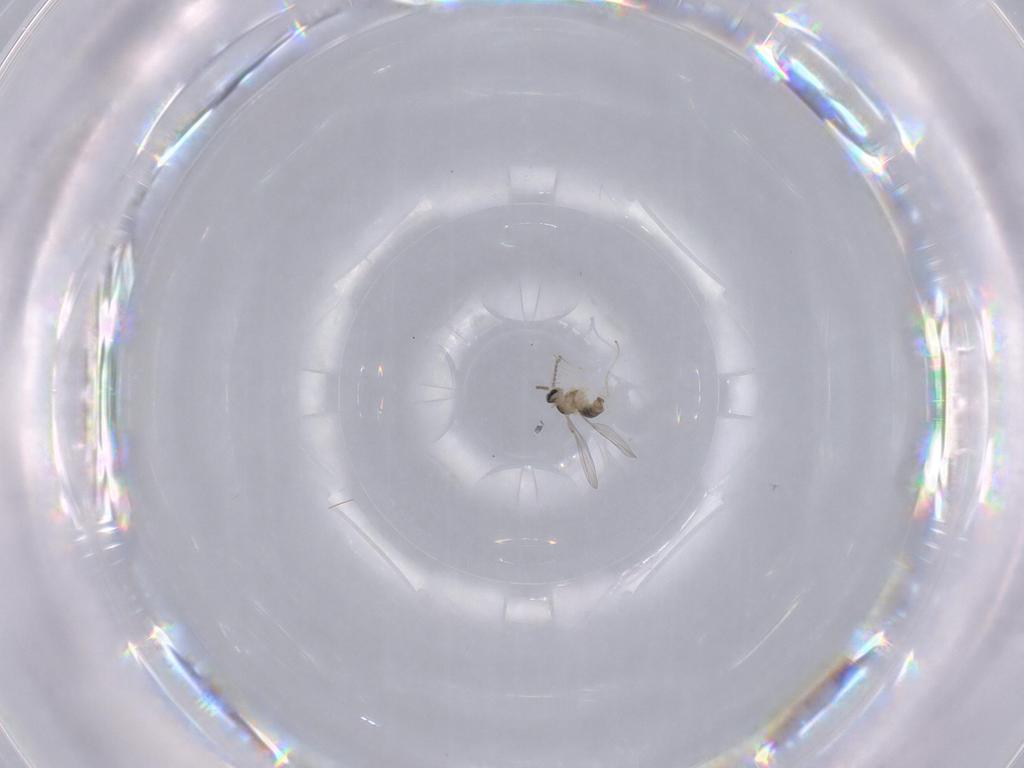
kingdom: Animalia
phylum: Arthropoda
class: Insecta
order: Diptera
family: Cecidomyiidae
